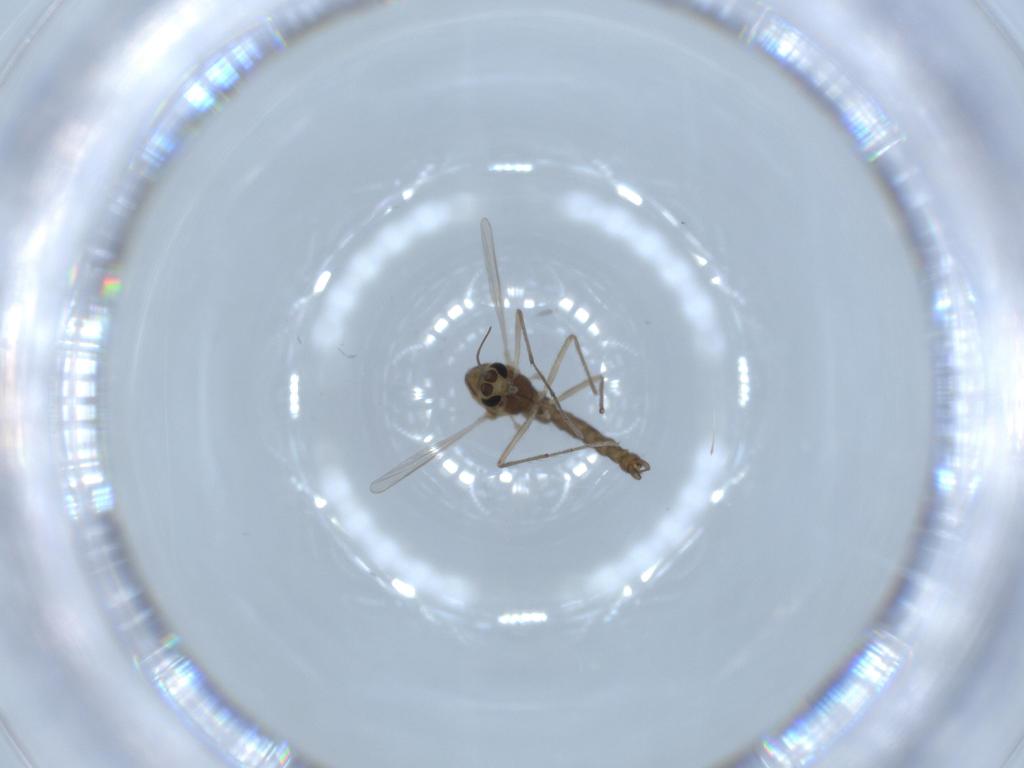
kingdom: Animalia
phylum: Arthropoda
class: Insecta
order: Diptera
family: Chironomidae
